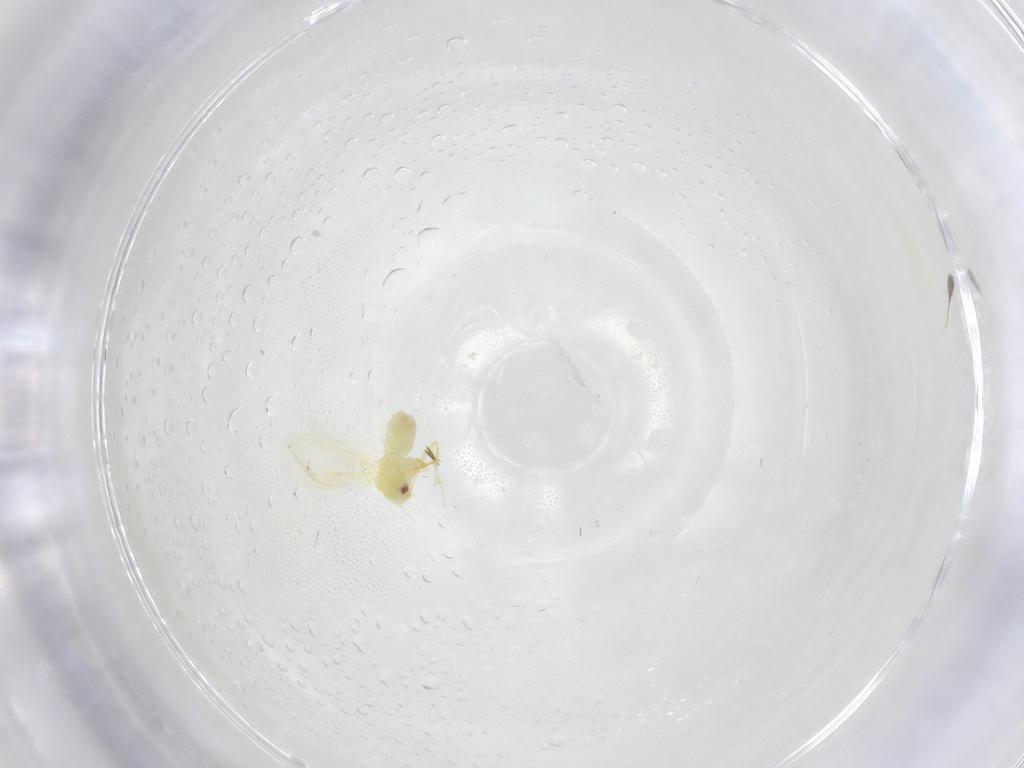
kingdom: Animalia
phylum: Arthropoda
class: Insecta
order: Hemiptera
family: Aleyrodidae
